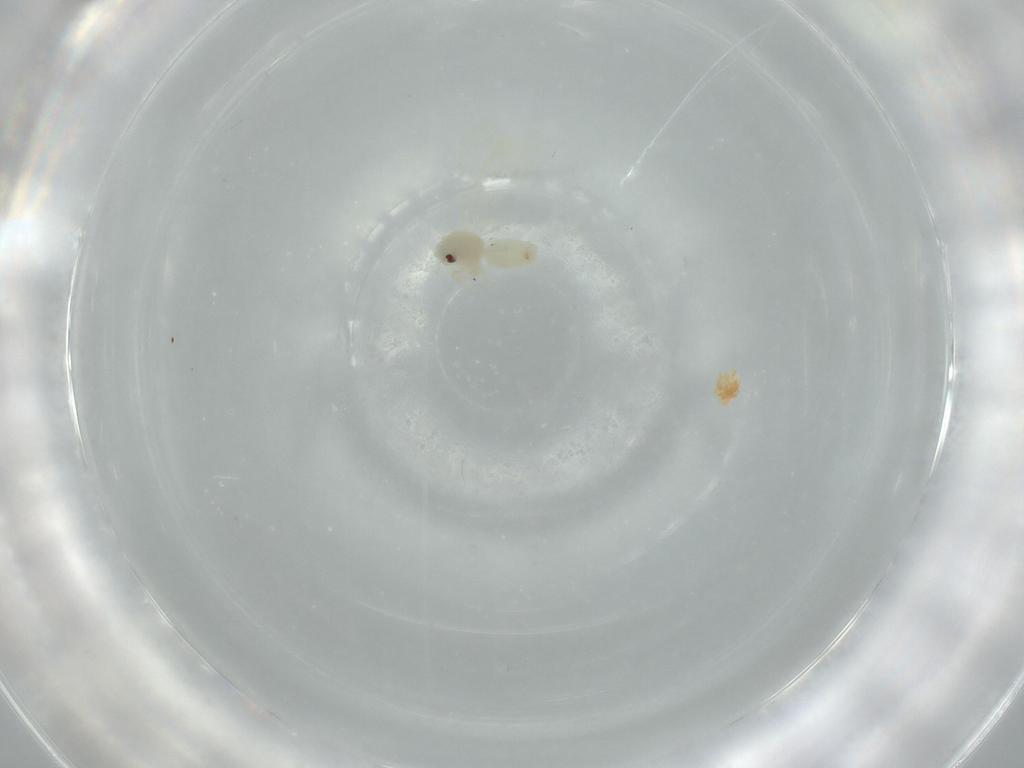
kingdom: Animalia
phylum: Arthropoda
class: Insecta
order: Hemiptera
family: Aleyrodidae
